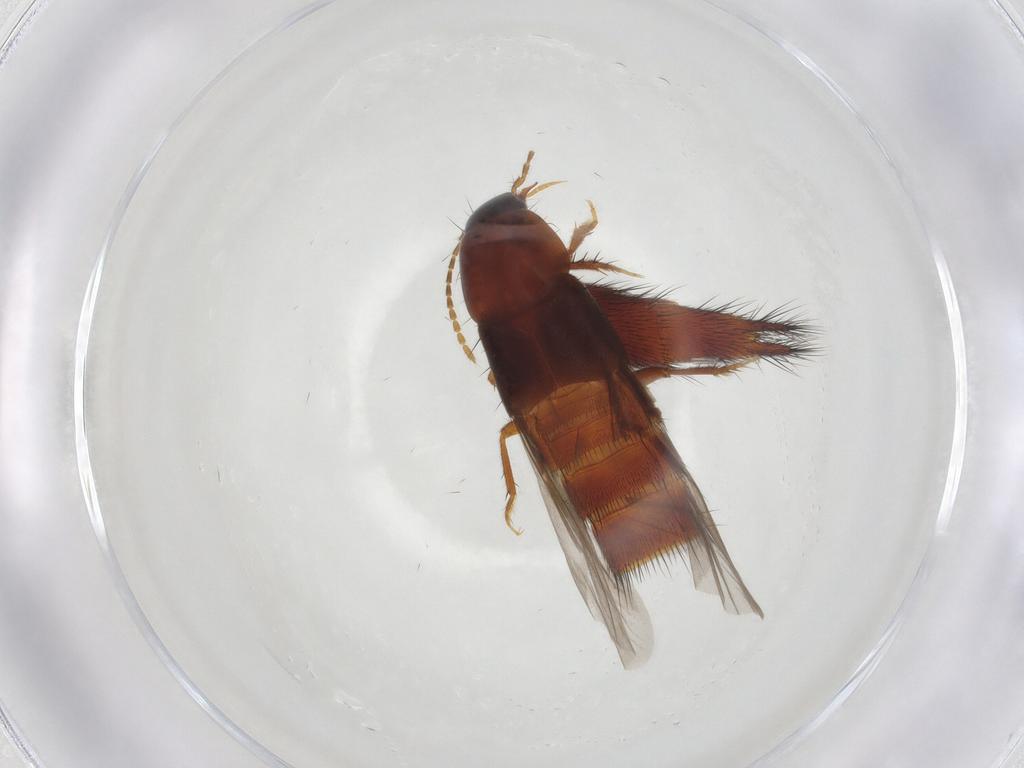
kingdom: Animalia
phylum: Arthropoda
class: Insecta
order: Coleoptera
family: Staphylinidae
